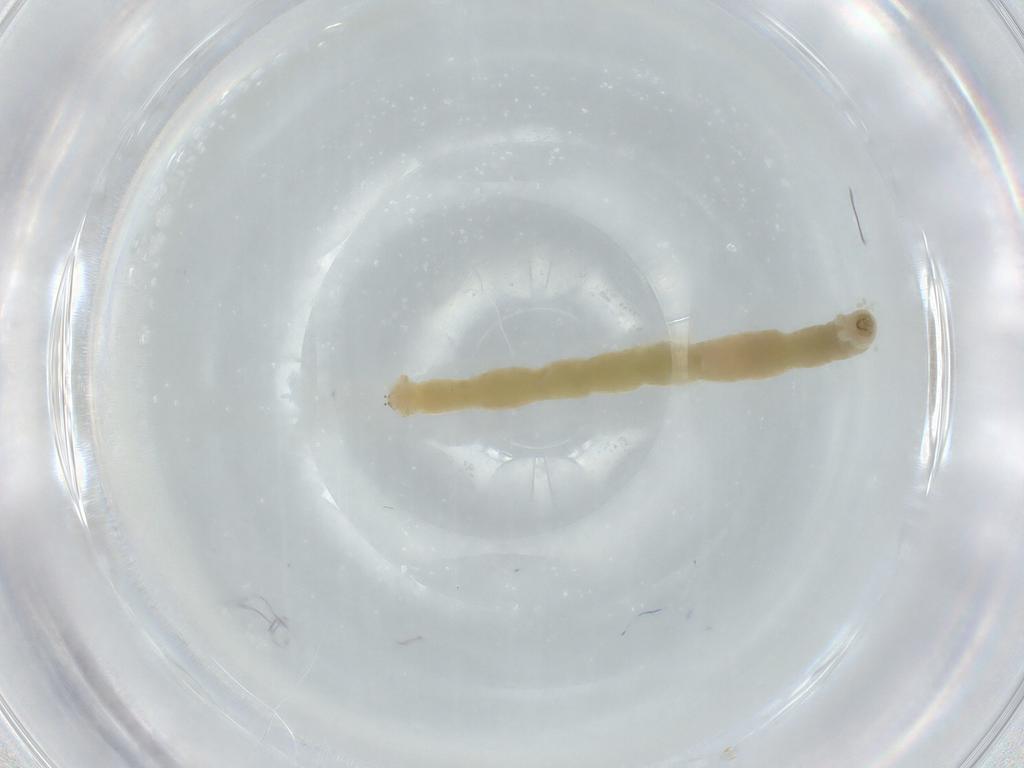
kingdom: Animalia
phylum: Arthropoda
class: Insecta
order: Diptera
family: Chironomidae
